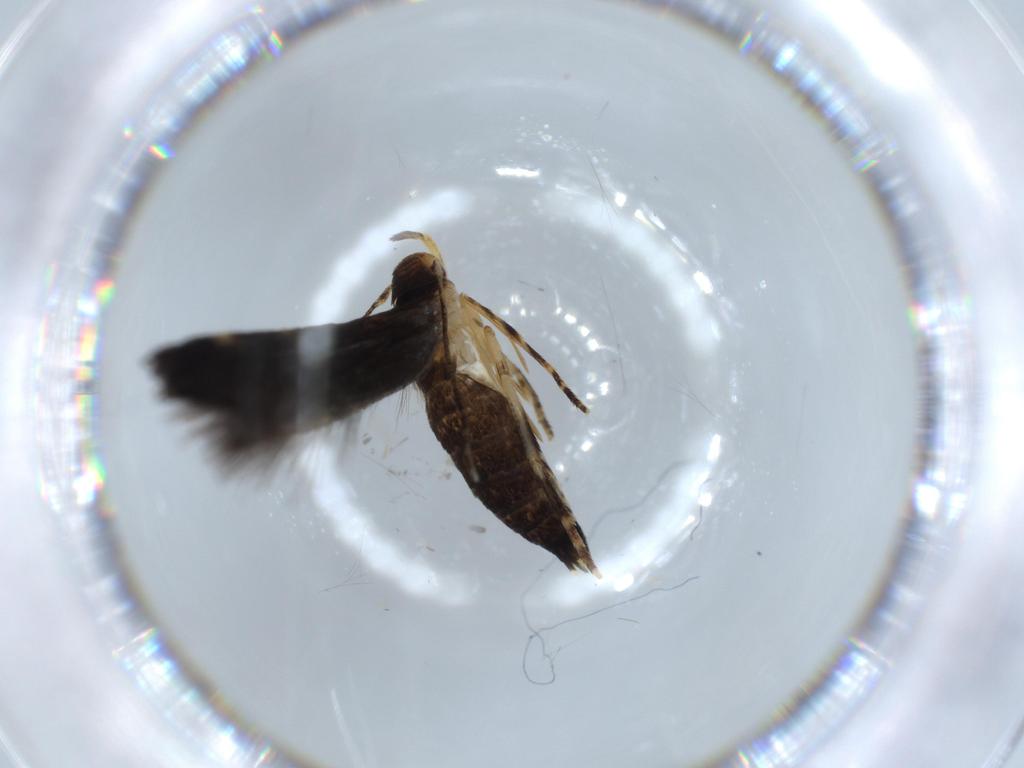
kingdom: Animalia
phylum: Arthropoda
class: Insecta
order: Lepidoptera
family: Momphidae
